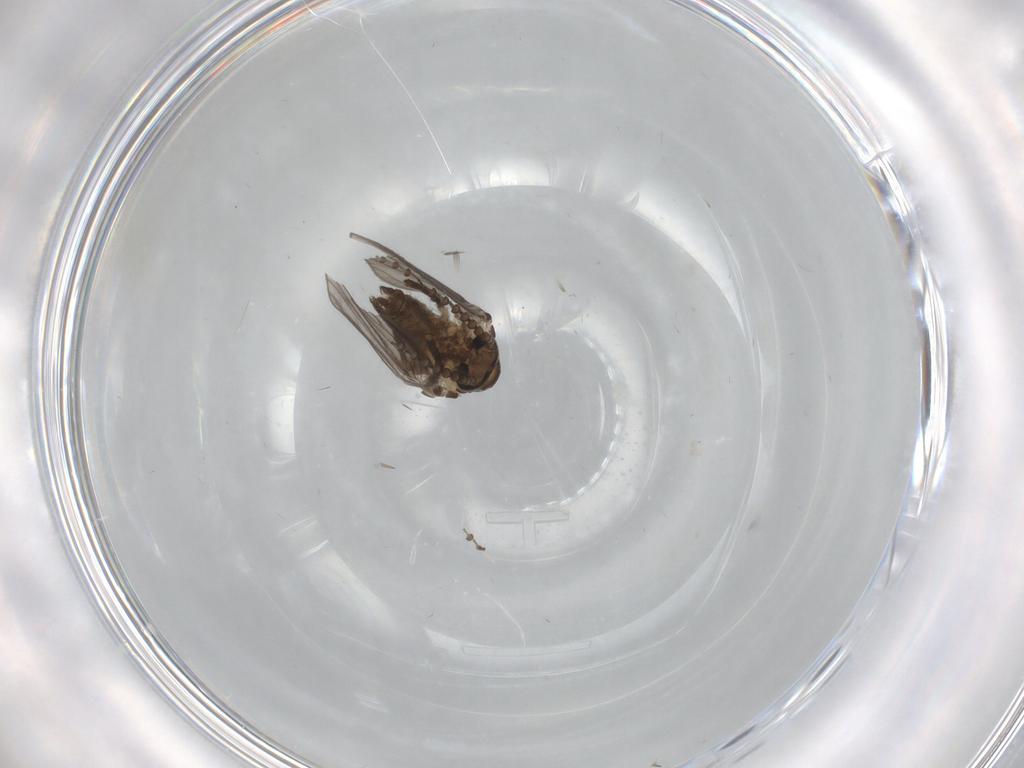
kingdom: Animalia
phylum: Arthropoda
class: Insecta
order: Diptera
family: Psychodidae
